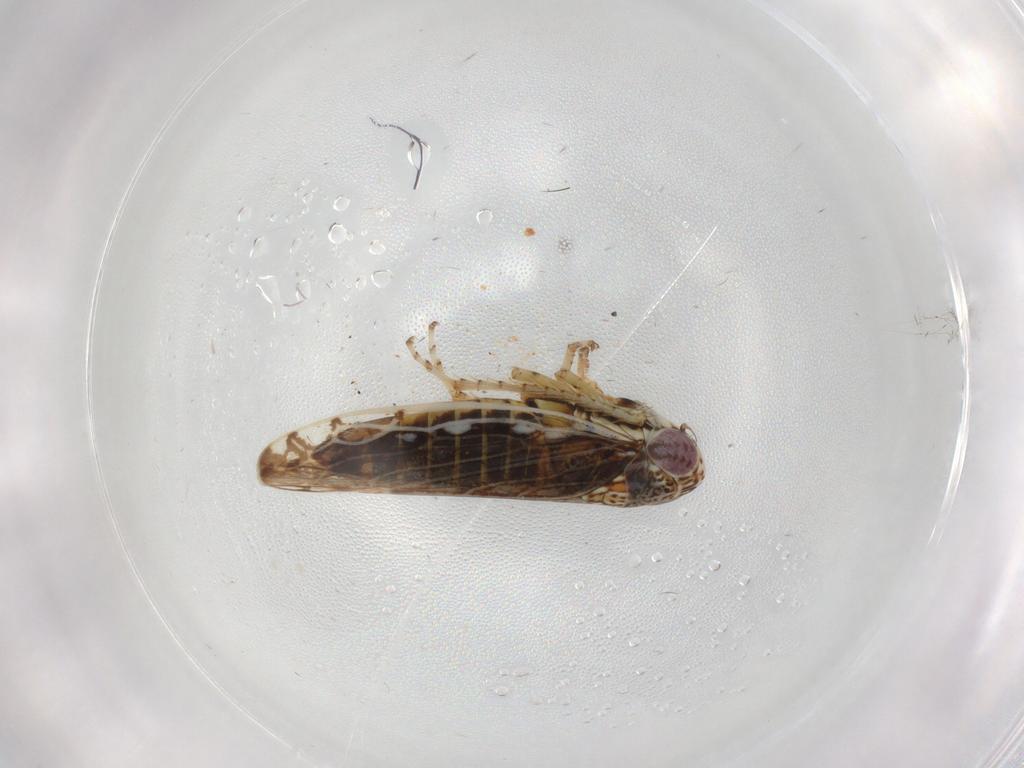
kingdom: Animalia
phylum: Arthropoda
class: Insecta
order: Hemiptera
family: Cicadellidae
